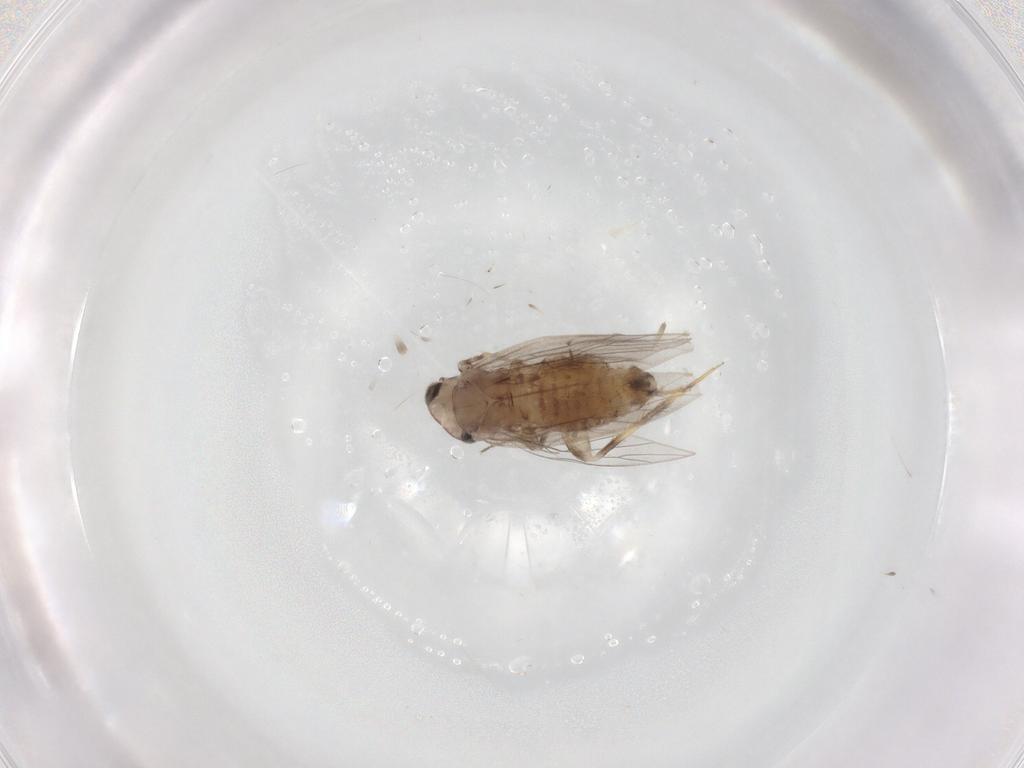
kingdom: Animalia
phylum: Arthropoda
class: Insecta
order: Psocodea
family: Lepidopsocidae
